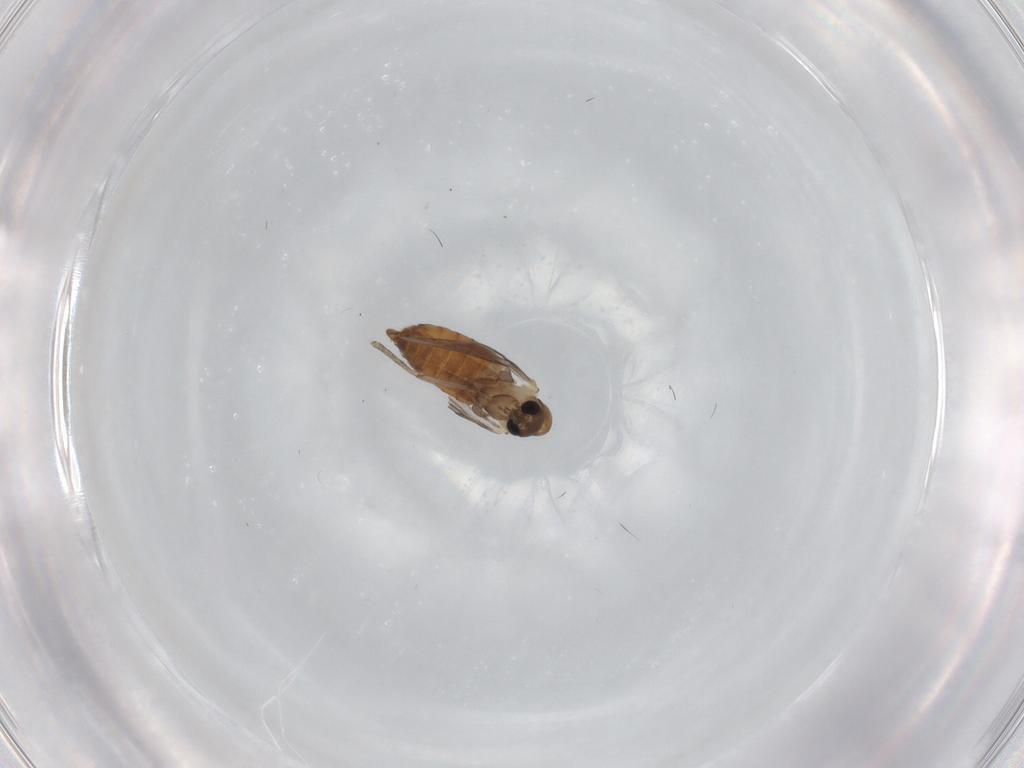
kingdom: Animalia
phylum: Arthropoda
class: Insecta
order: Diptera
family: Psychodidae
